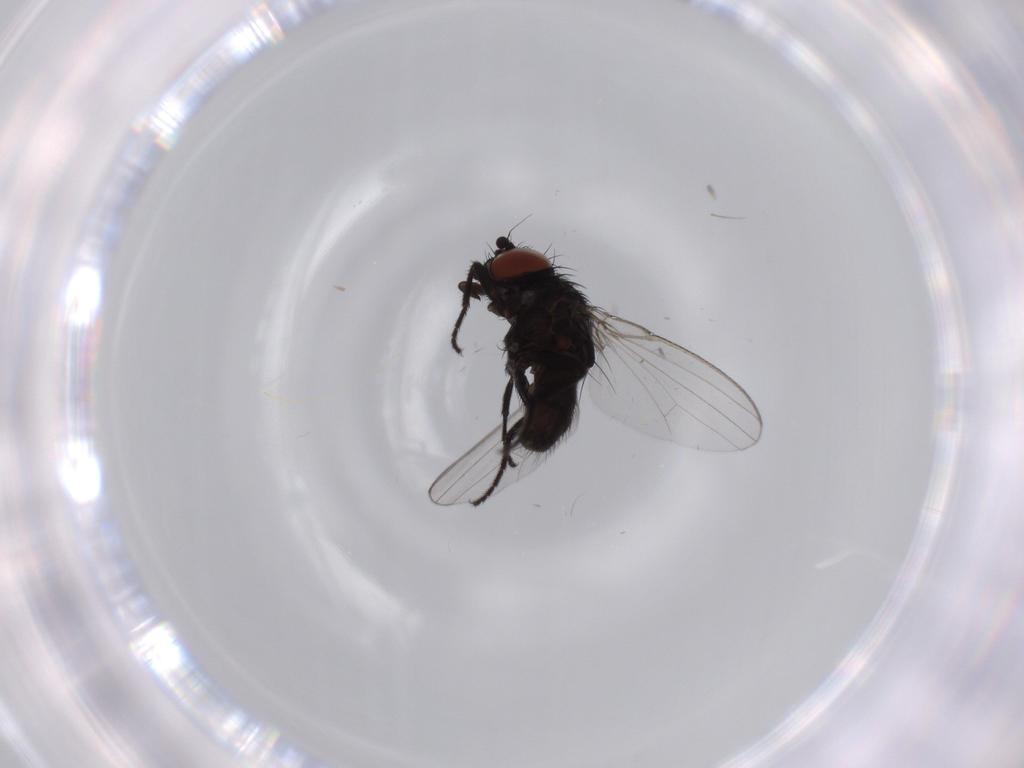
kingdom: Animalia
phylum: Arthropoda
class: Insecta
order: Diptera
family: Milichiidae
